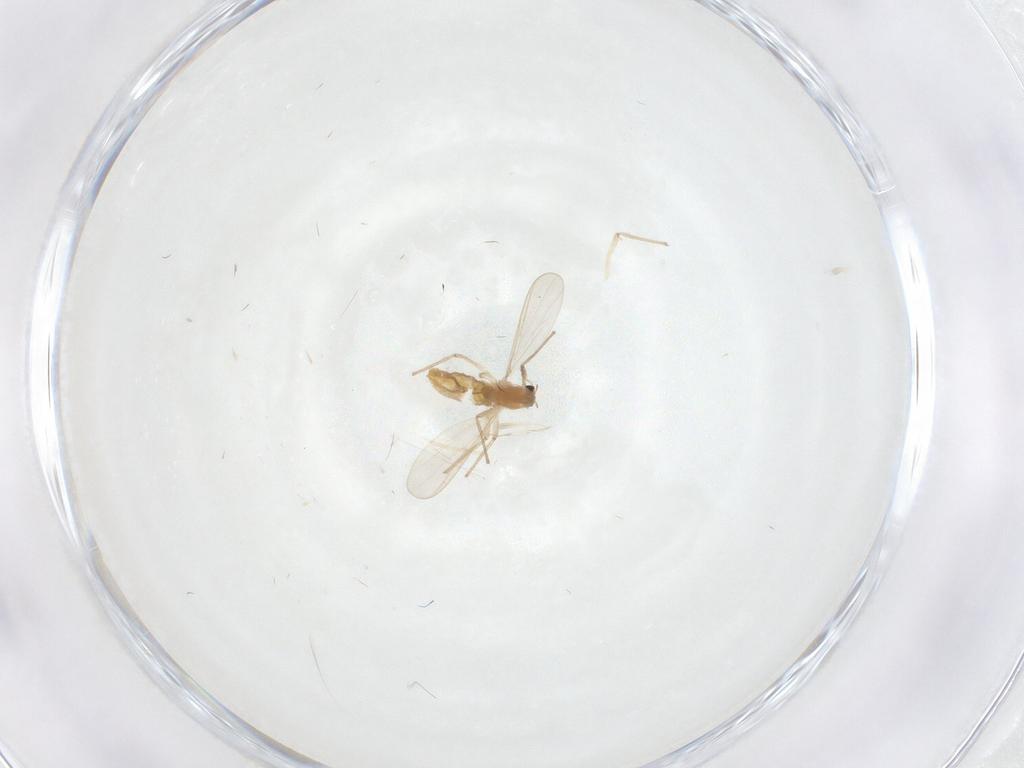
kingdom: Animalia
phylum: Arthropoda
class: Insecta
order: Diptera
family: Chironomidae
